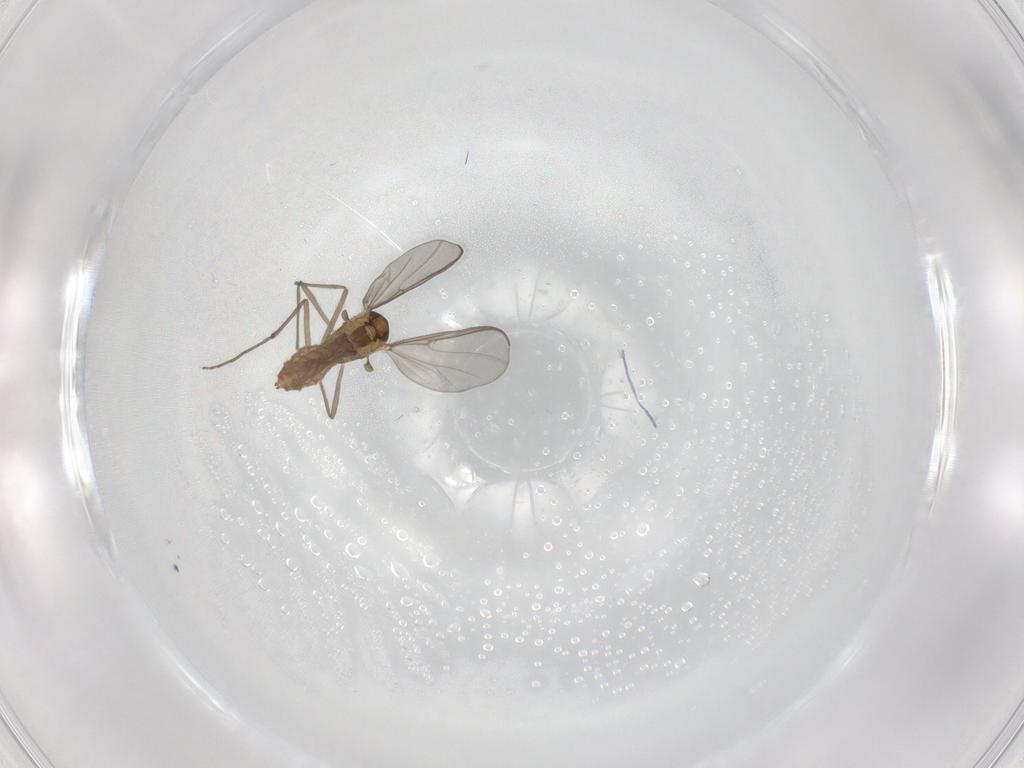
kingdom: Animalia
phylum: Arthropoda
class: Insecta
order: Diptera
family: Chironomidae
